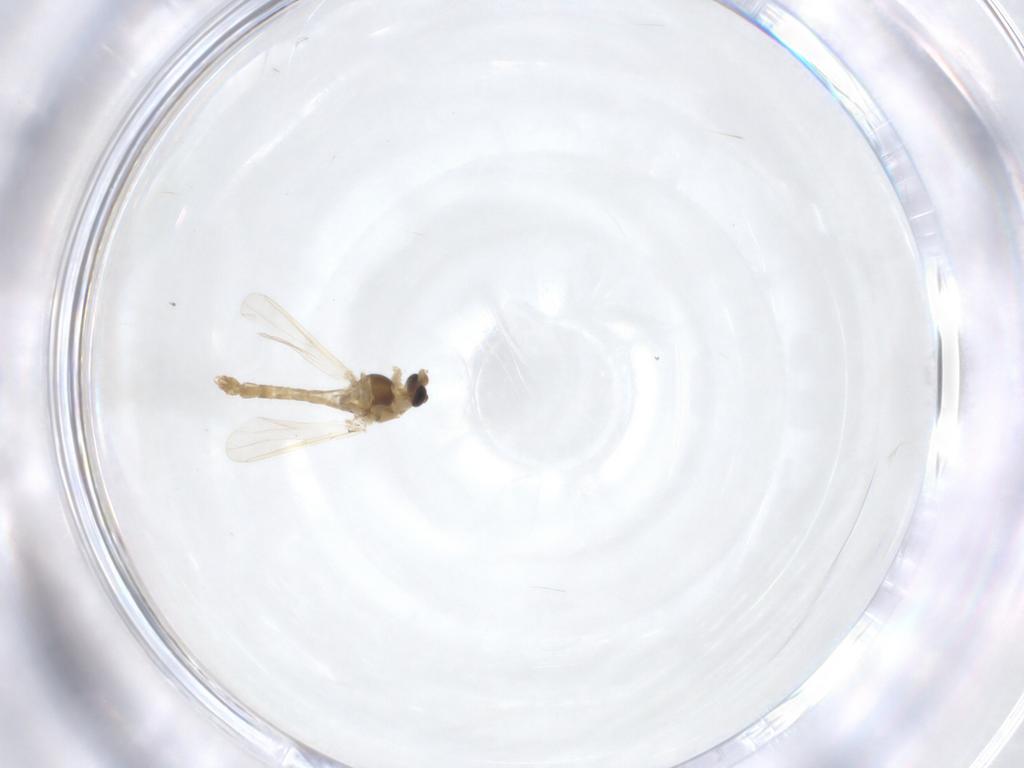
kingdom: Animalia
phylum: Arthropoda
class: Insecta
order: Diptera
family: Chironomidae
